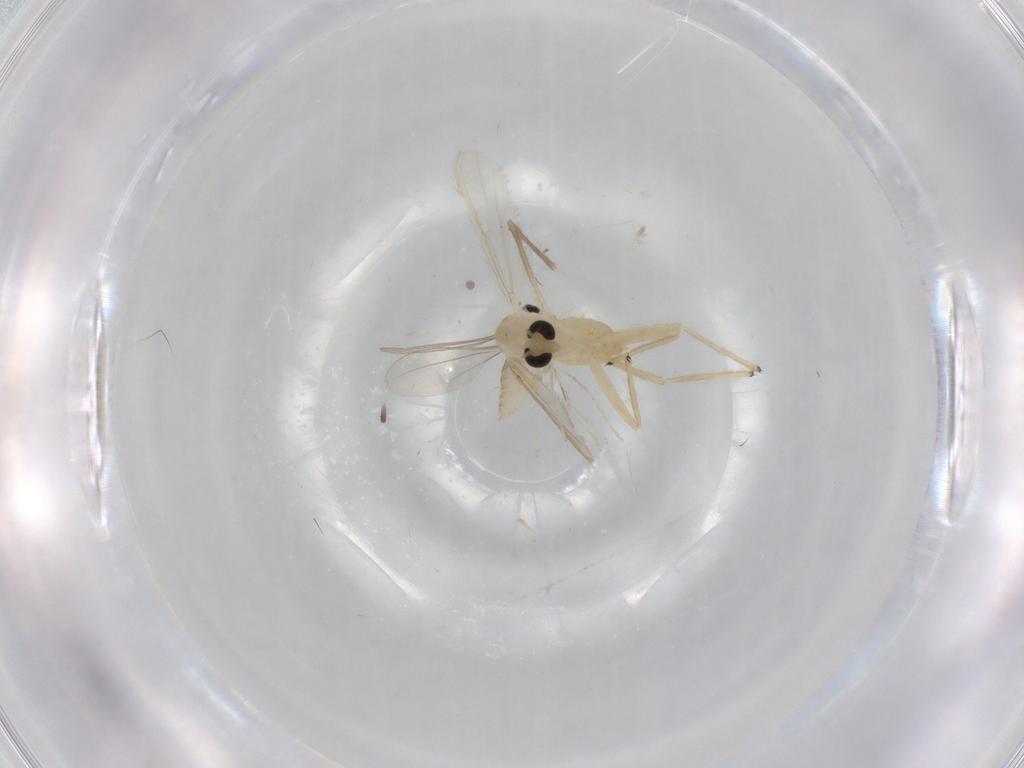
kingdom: Animalia
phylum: Arthropoda
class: Insecta
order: Diptera
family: Cecidomyiidae
